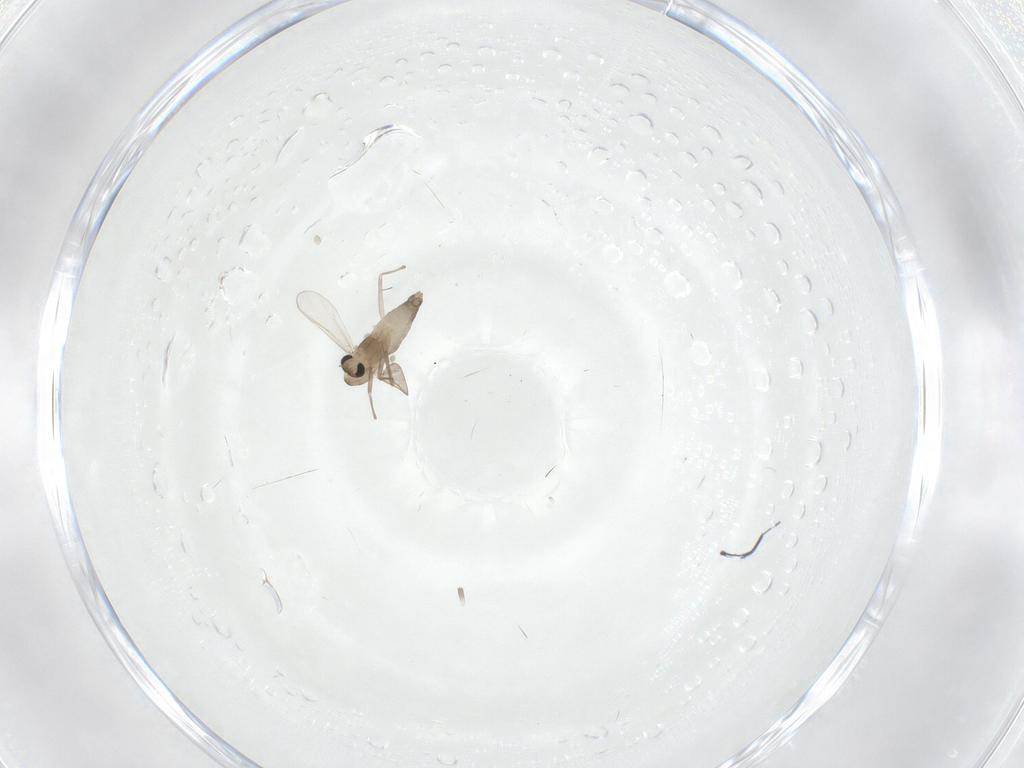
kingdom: Animalia
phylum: Arthropoda
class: Insecta
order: Diptera
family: Chironomidae
